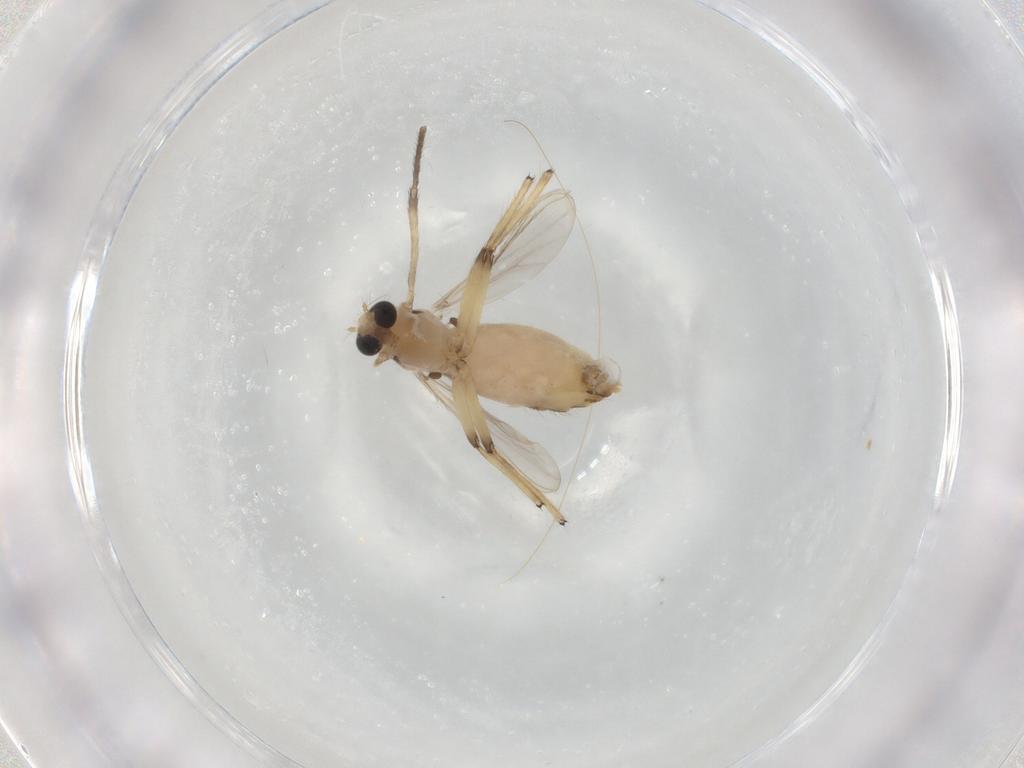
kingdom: Animalia
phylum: Arthropoda
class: Insecta
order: Diptera
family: Chironomidae
